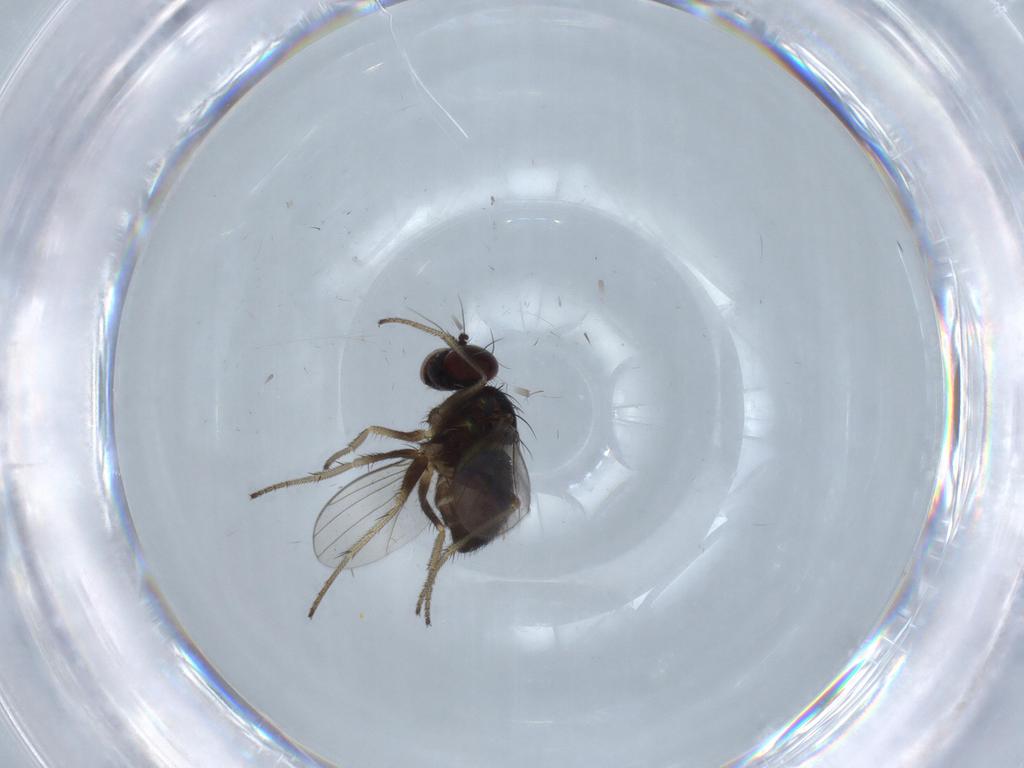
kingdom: Animalia
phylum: Arthropoda
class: Insecta
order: Diptera
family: Dolichopodidae
